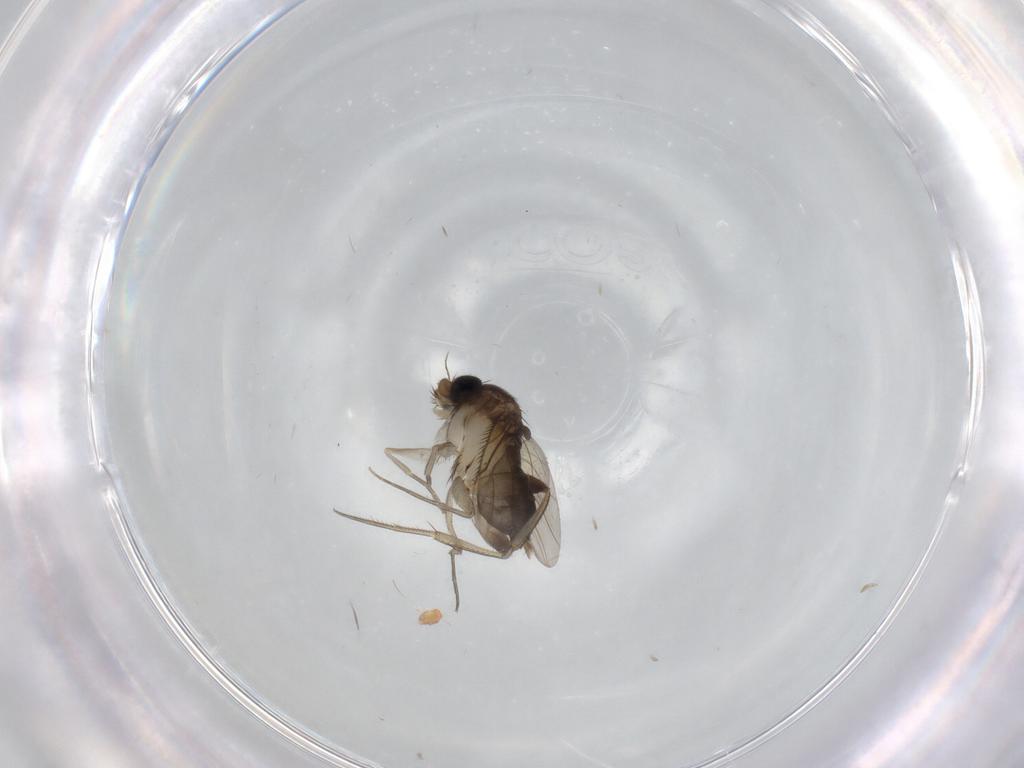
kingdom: Animalia
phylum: Arthropoda
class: Insecta
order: Diptera
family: Phoridae
